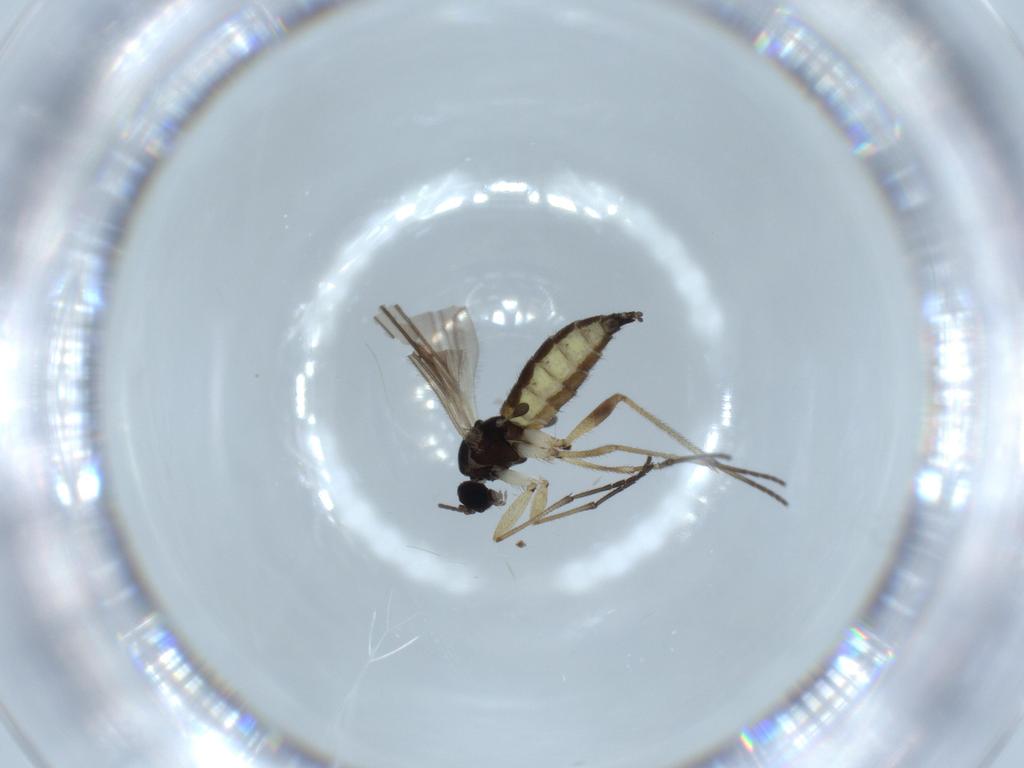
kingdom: Animalia
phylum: Arthropoda
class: Insecta
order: Diptera
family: Sciaridae
